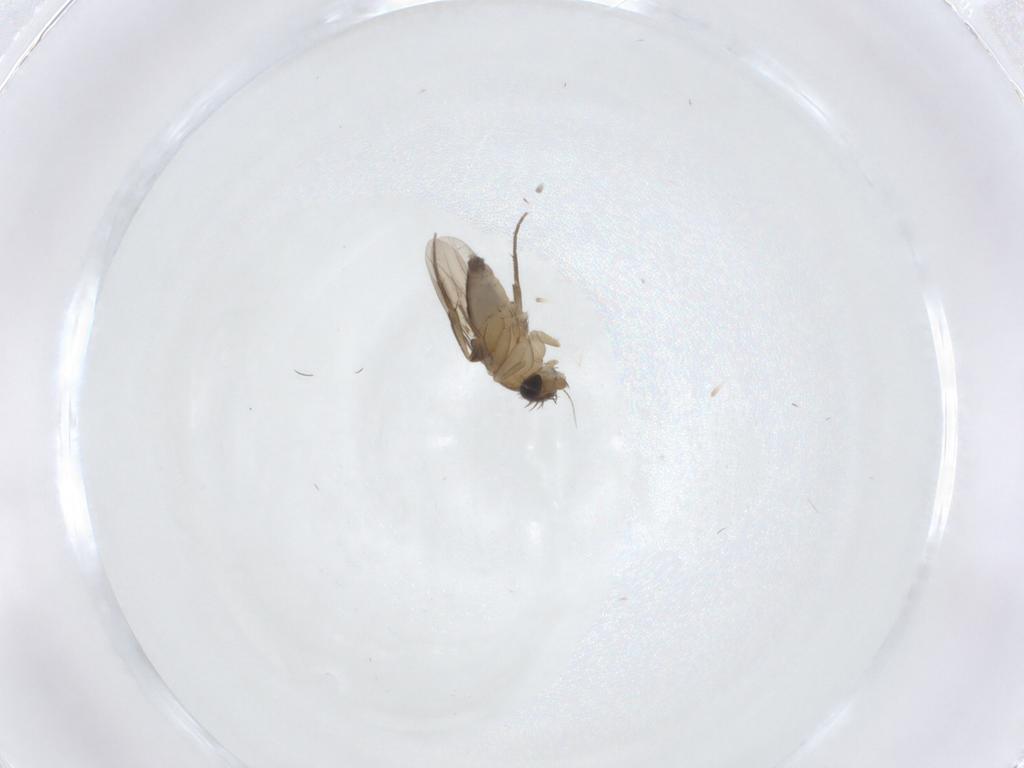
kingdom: Animalia
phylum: Arthropoda
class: Insecta
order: Diptera
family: Phoridae
